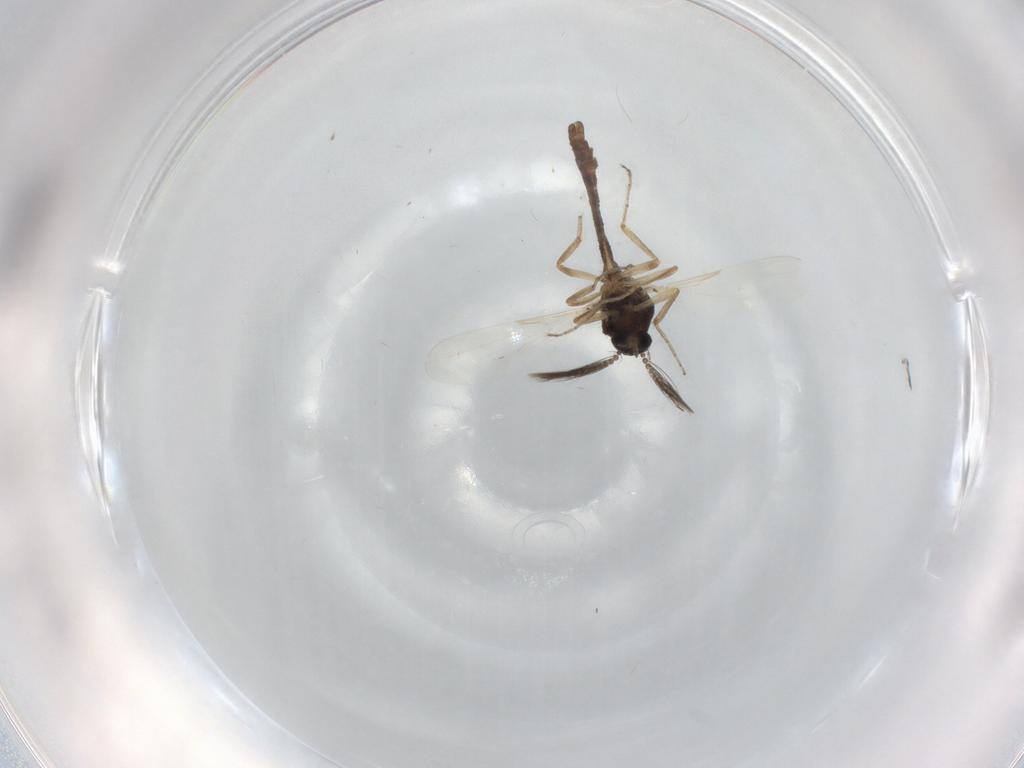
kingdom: Animalia
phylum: Arthropoda
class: Insecta
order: Diptera
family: Ceratopogonidae
